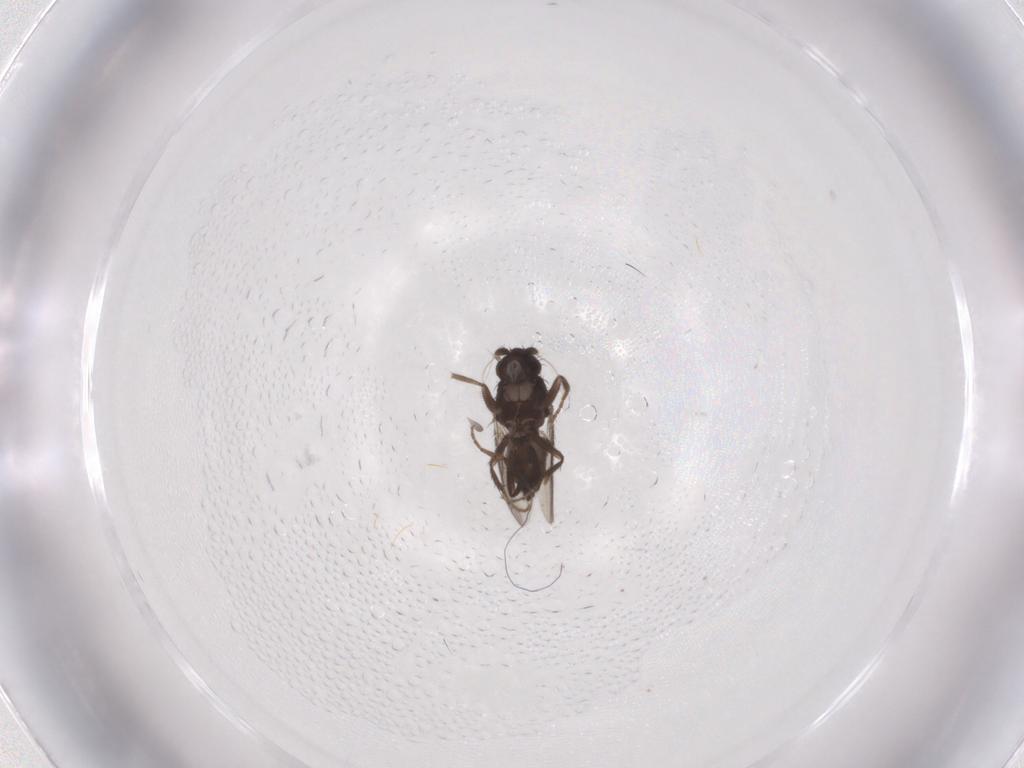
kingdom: Animalia
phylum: Arthropoda
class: Insecta
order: Diptera
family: Sphaeroceridae
